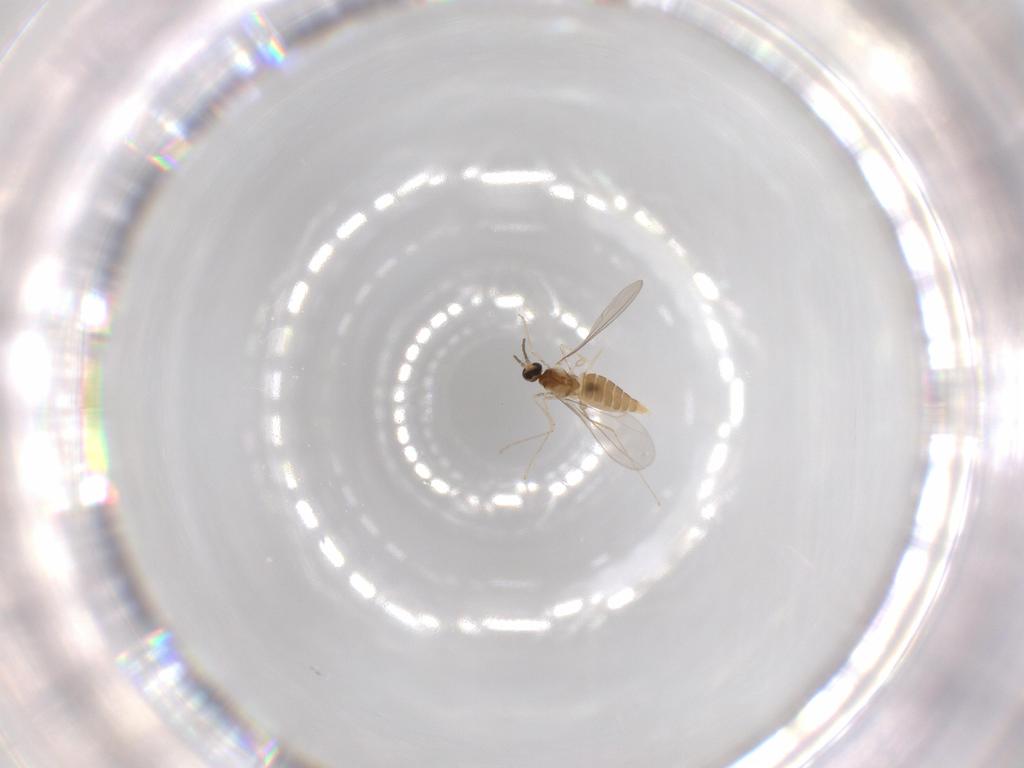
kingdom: Animalia
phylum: Arthropoda
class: Insecta
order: Diptera
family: Chironomidae
